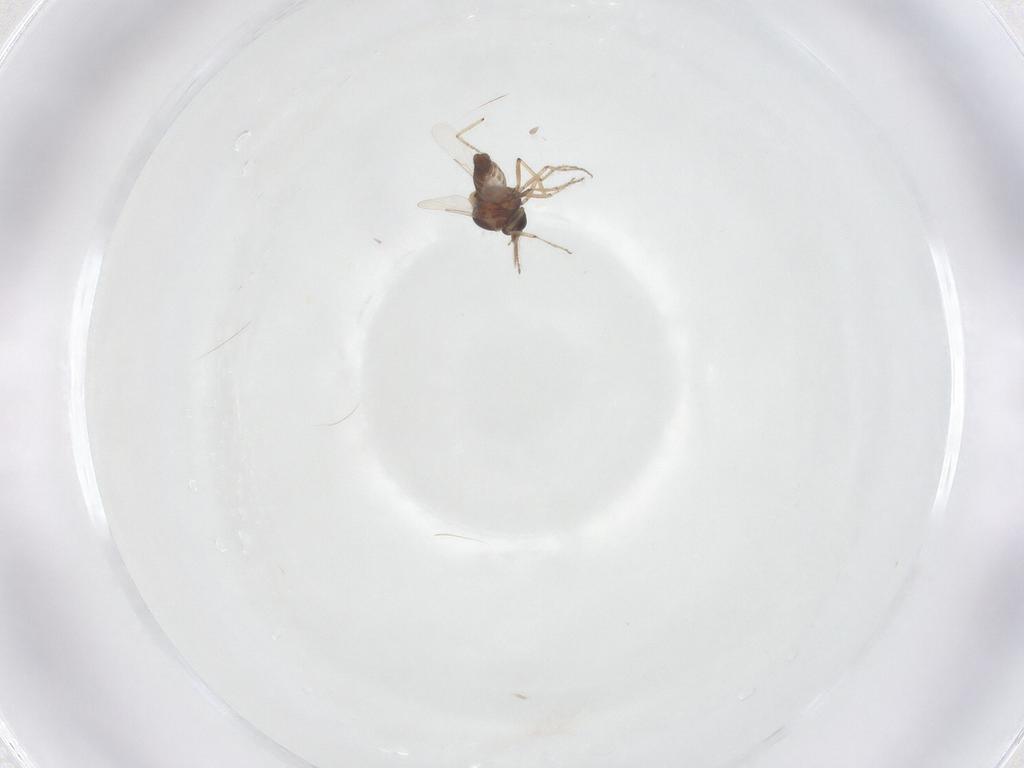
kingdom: Animalia
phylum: Arthropoda
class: Insecta
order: Diptera
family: Ceratopogonidae
